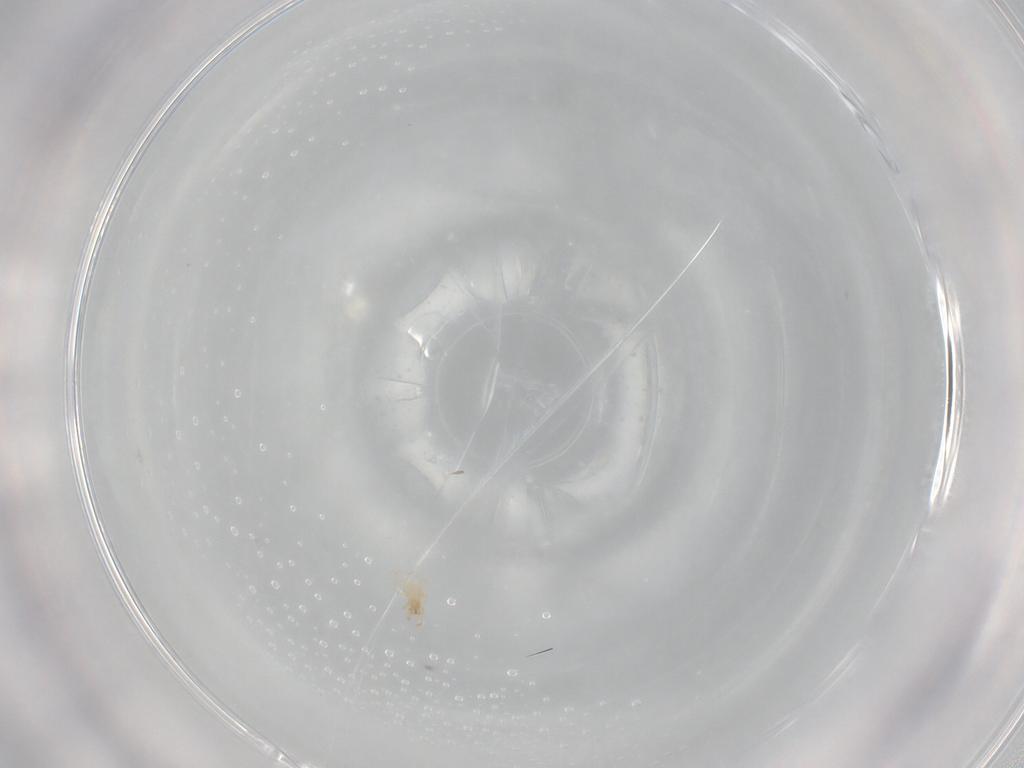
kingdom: Animalia
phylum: Arthropoda
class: Arachnida
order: Trombidiformes
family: Erythraeidae
